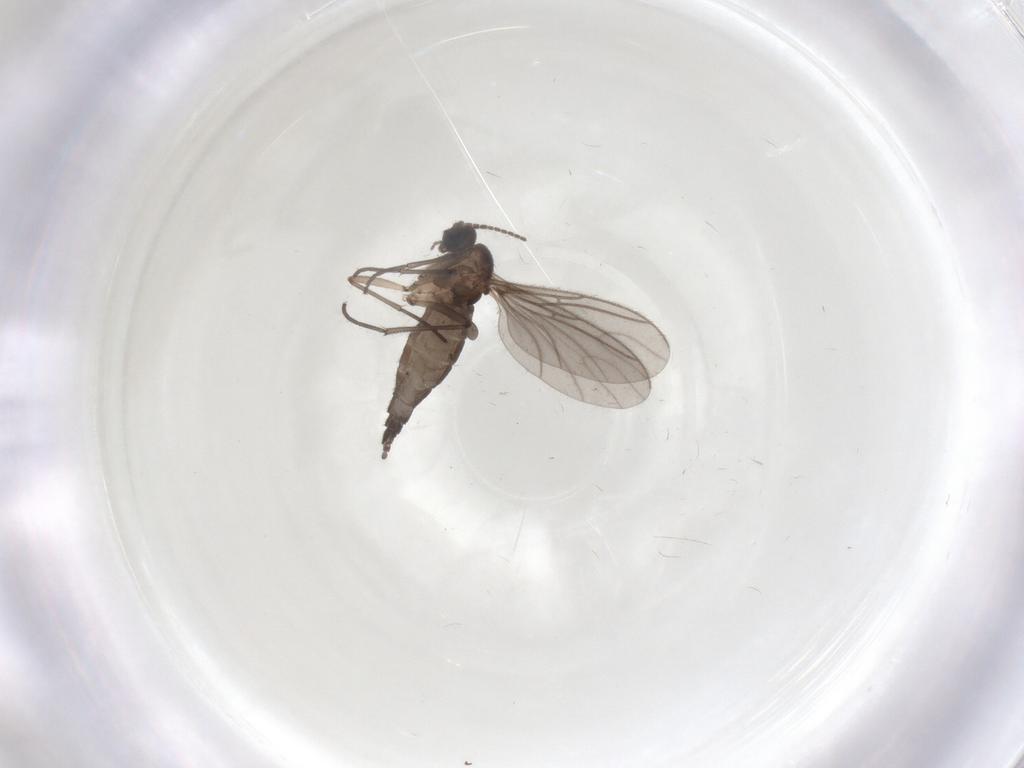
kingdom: Animalia
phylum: Arthropoda
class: Insecta
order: Diptera
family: Sciaridae
